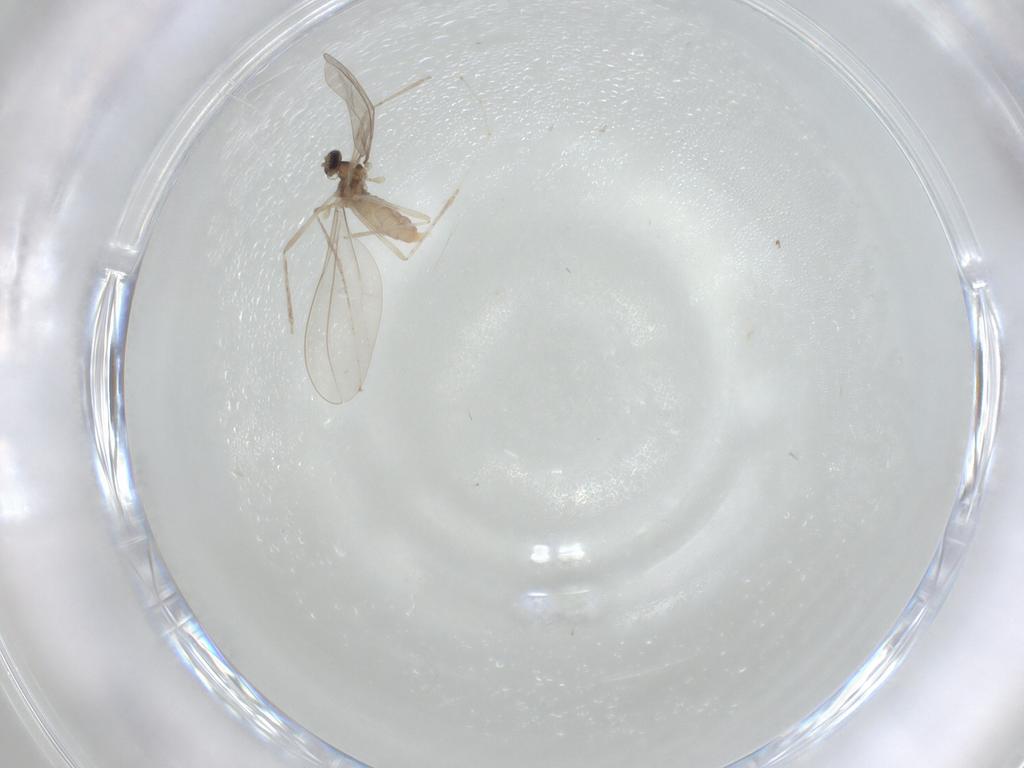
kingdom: Animalia
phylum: Arthropoda
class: Insecta
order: Diptera
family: Cecidomyiidae
